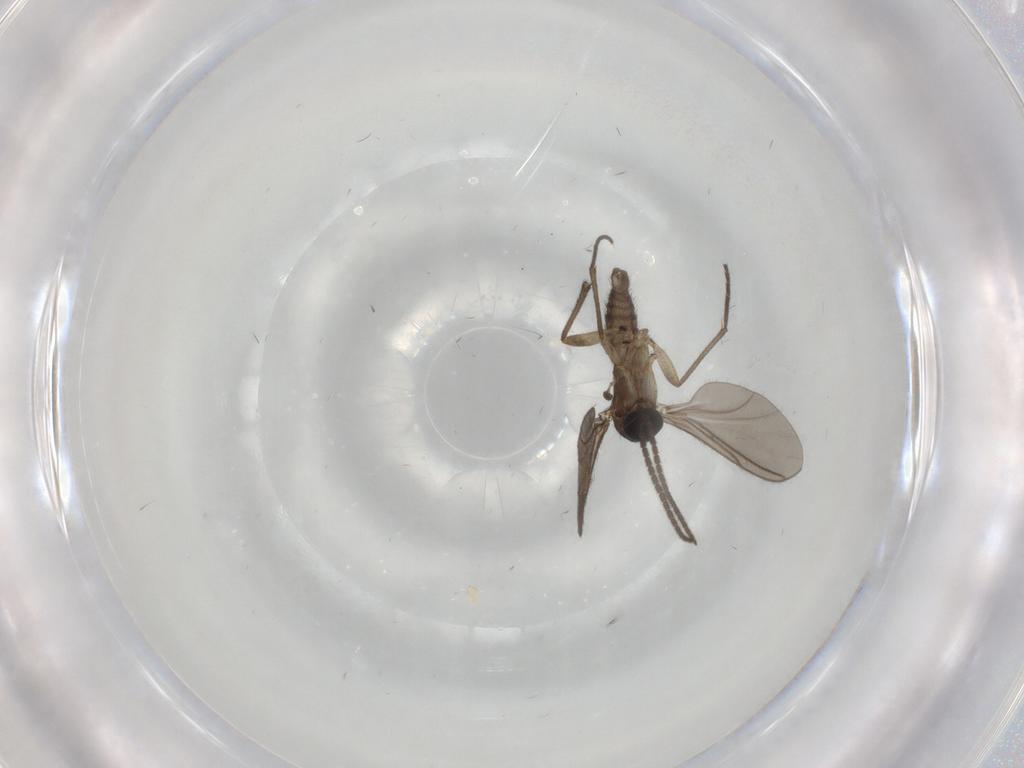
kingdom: Animalia
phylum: Arthropoda
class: Insecta
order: Diptera
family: Sciaridae
